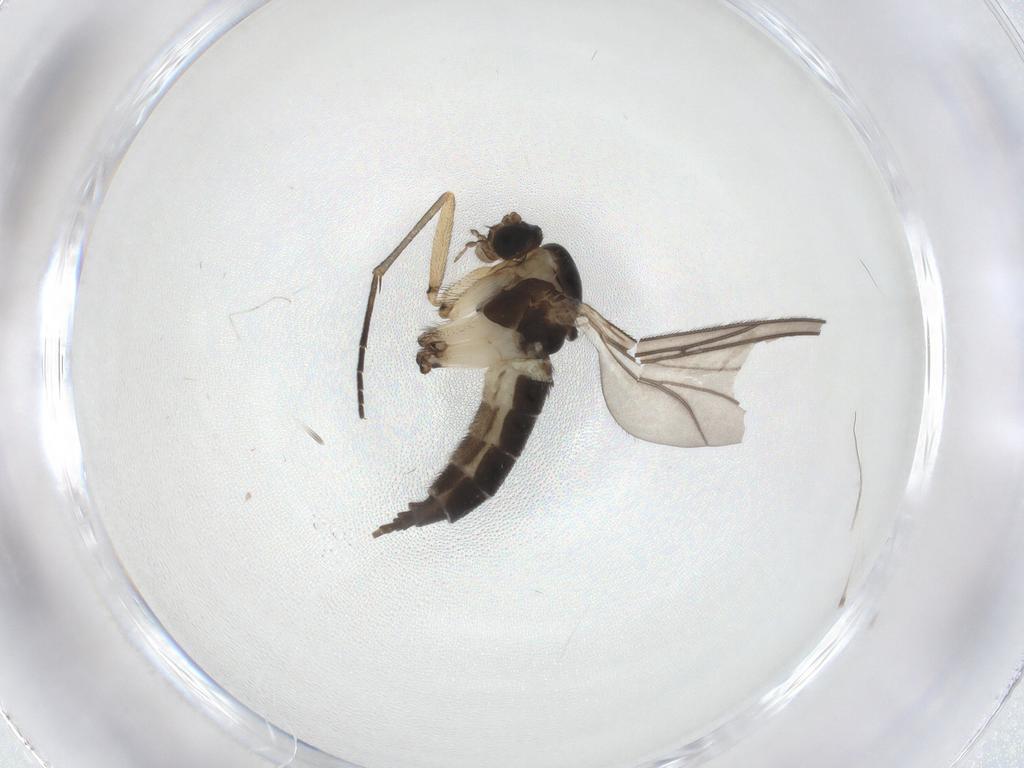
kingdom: Animalia
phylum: Arthropoda
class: Insecta
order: Diptera
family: Sciaridae
